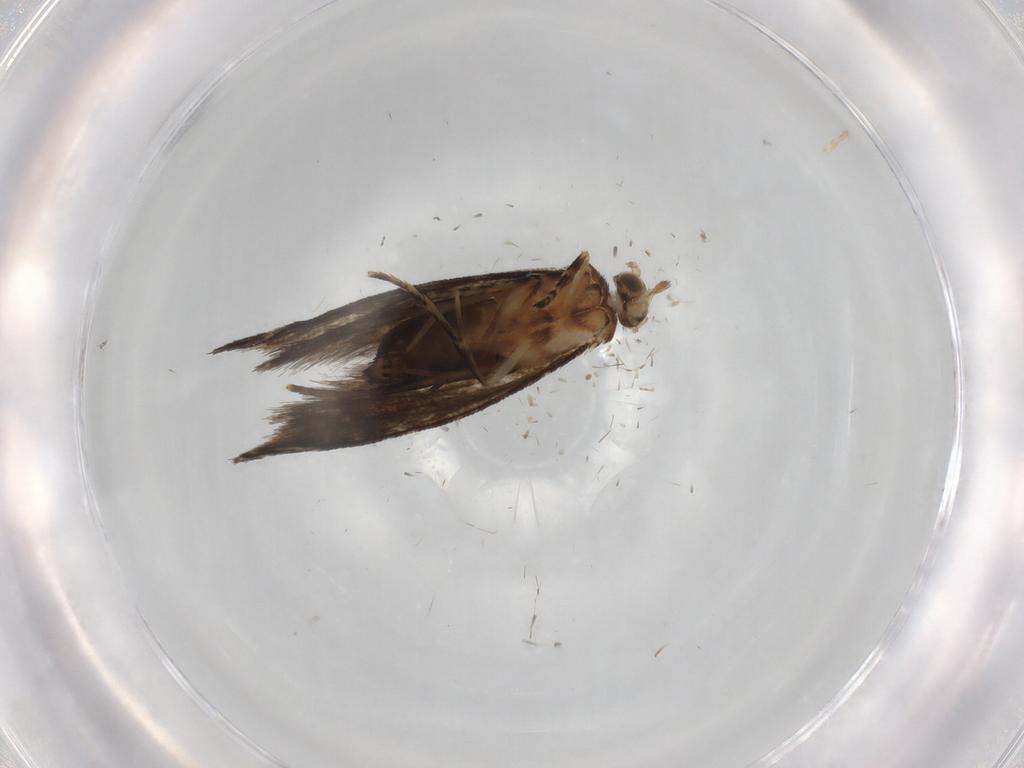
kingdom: Animalia
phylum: Arthropoda
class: Insecta
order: Lepidoptera
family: Crambidae
